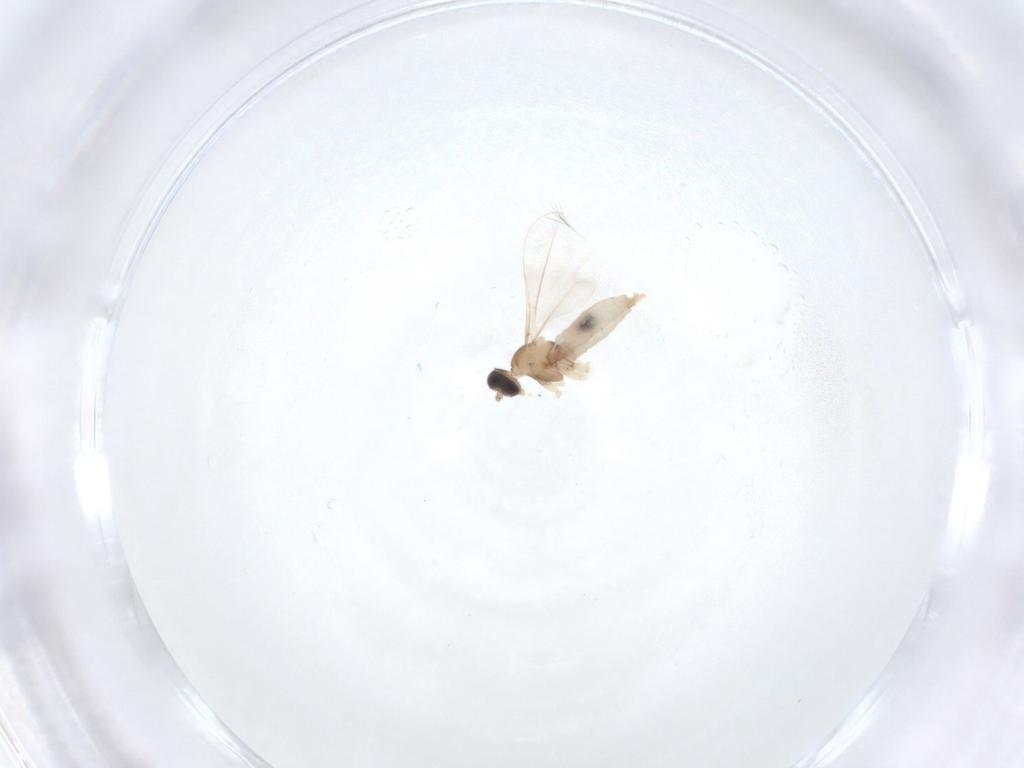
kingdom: Animalia
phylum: Arthropoda
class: Insecta
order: Diptera
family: Cecidomyiidae
